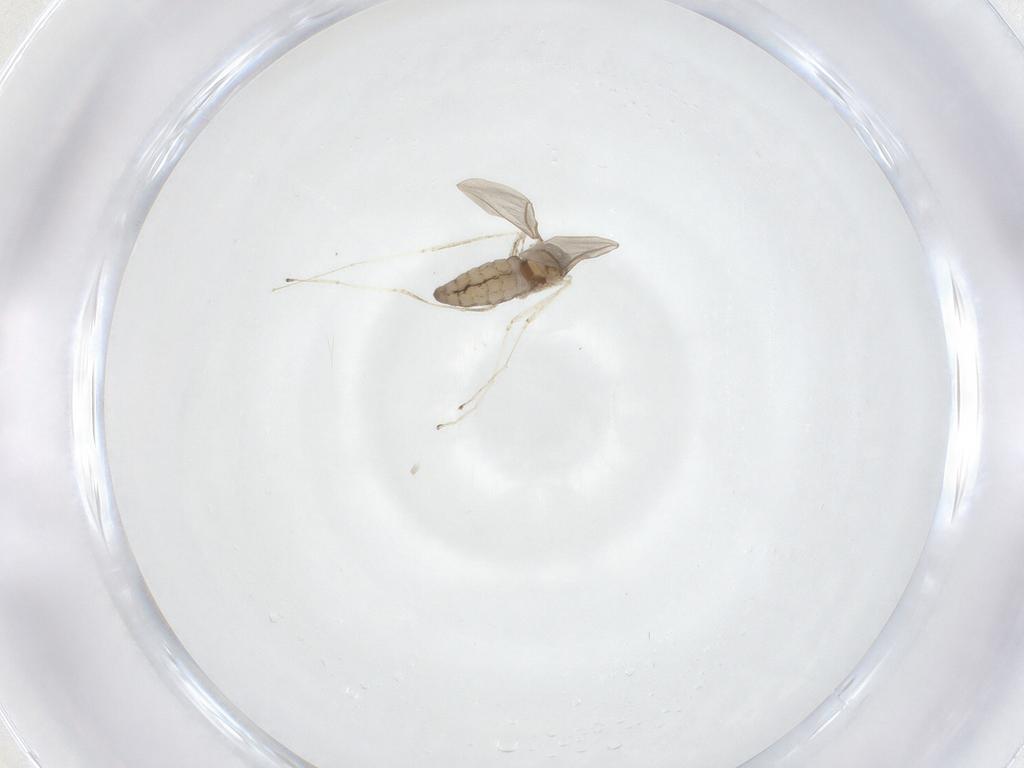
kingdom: Animalia
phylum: Arthropoda
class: Insecta
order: Diptera
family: Cecidomyiidae
